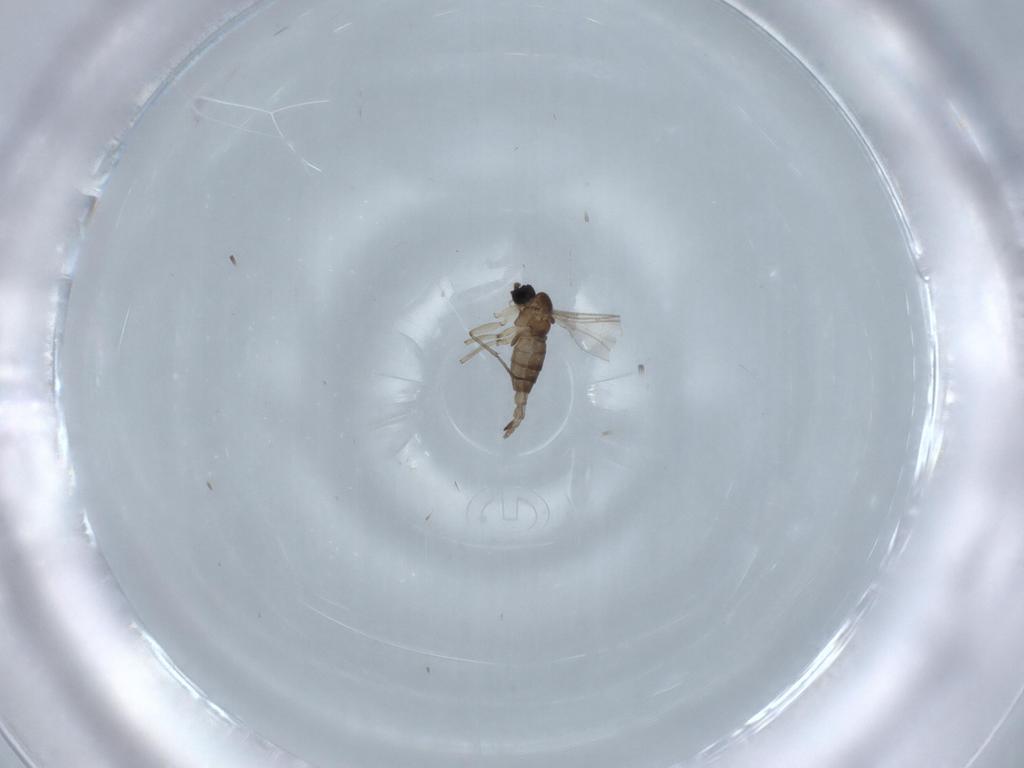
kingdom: Animalia
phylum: Arthropoda
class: Insecta
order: Diptera
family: Sciaridae
